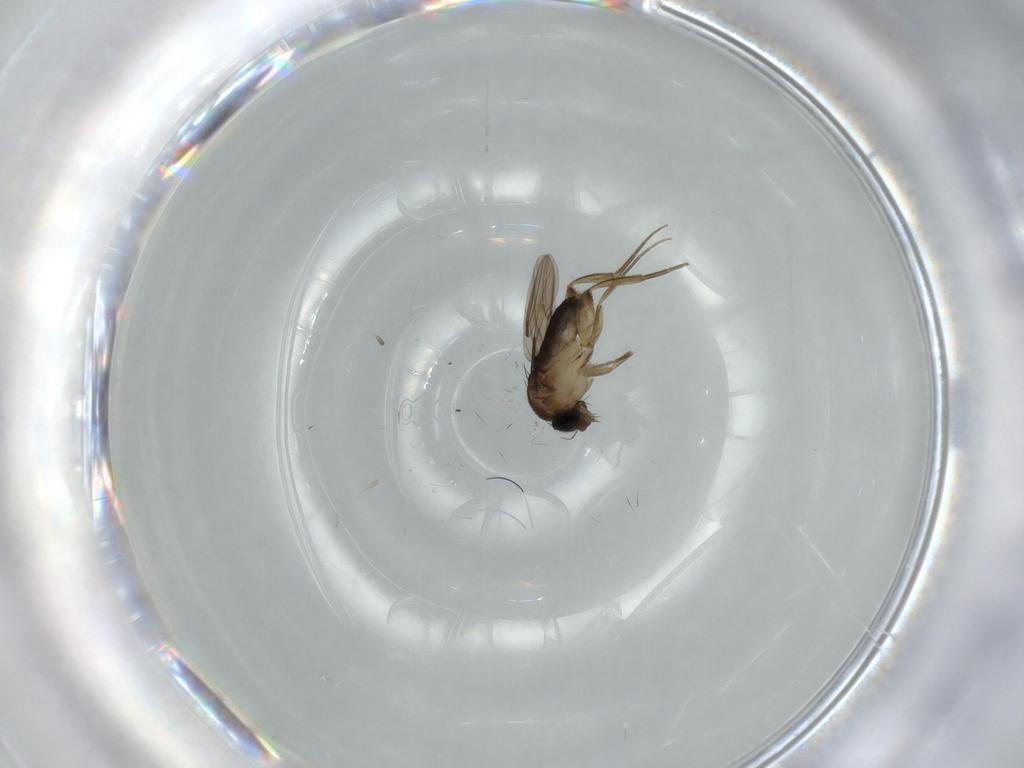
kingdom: Animalia
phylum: Arthropoda
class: Insecta
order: Diptera
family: Phoridae
